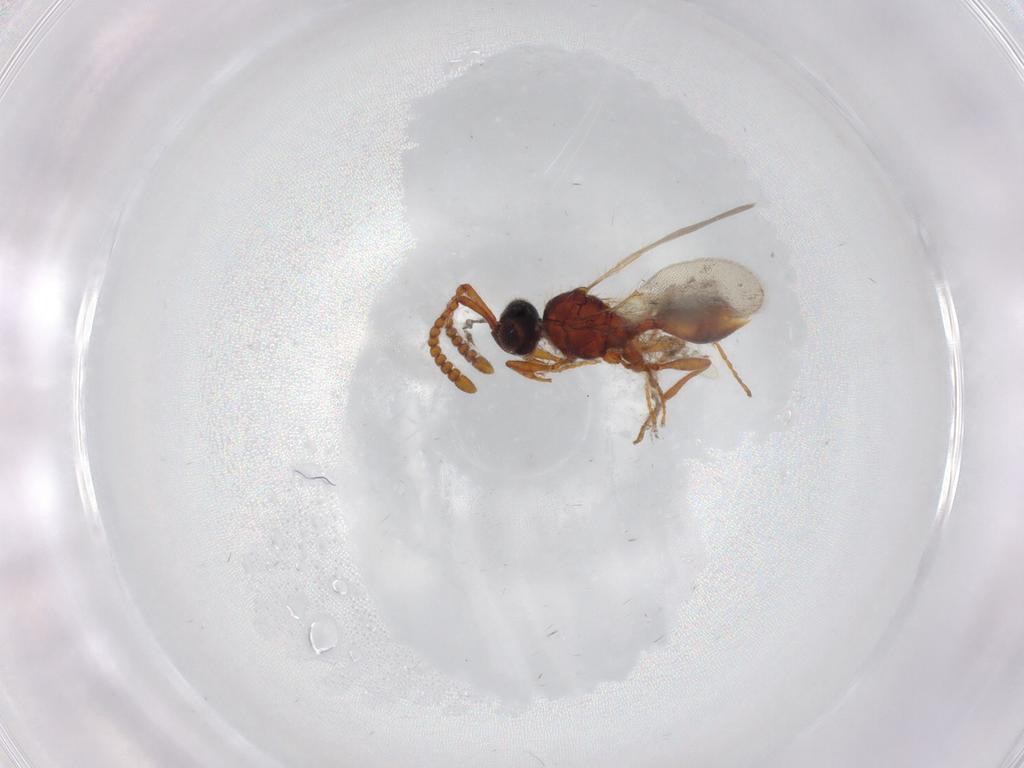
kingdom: Animalia
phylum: Arthropoda
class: Insecta
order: Hymenoptera
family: Diapriidae
